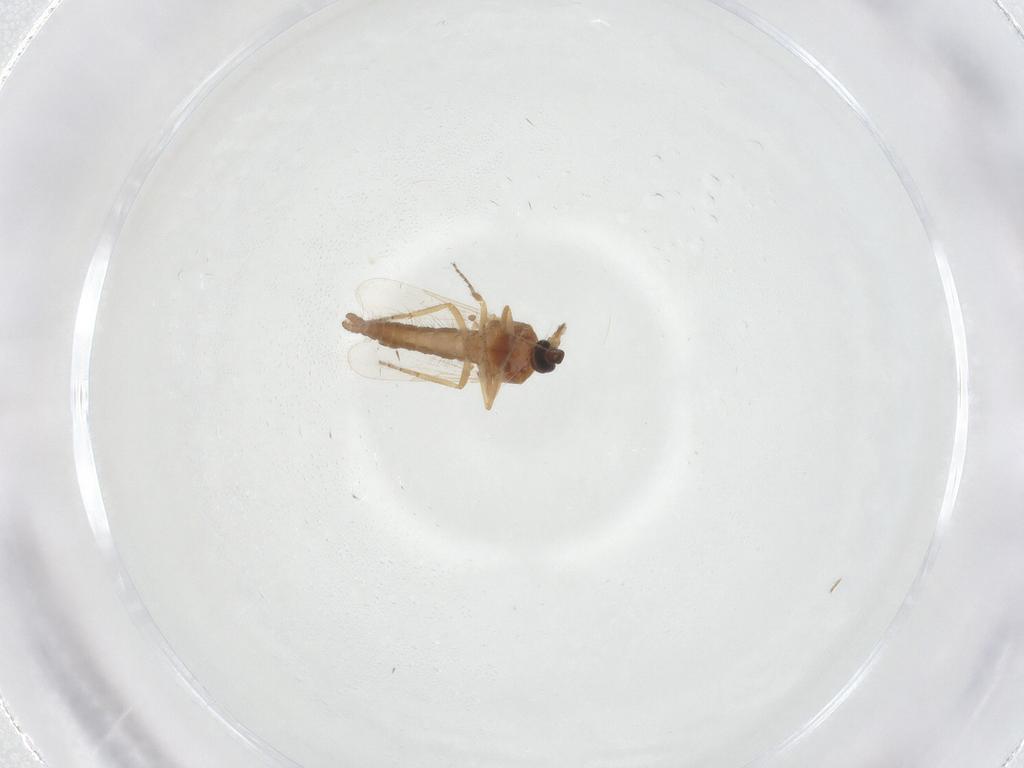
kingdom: Animalia
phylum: Arthropoda
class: Insecta
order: Diptera
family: Ceratopogonidae
